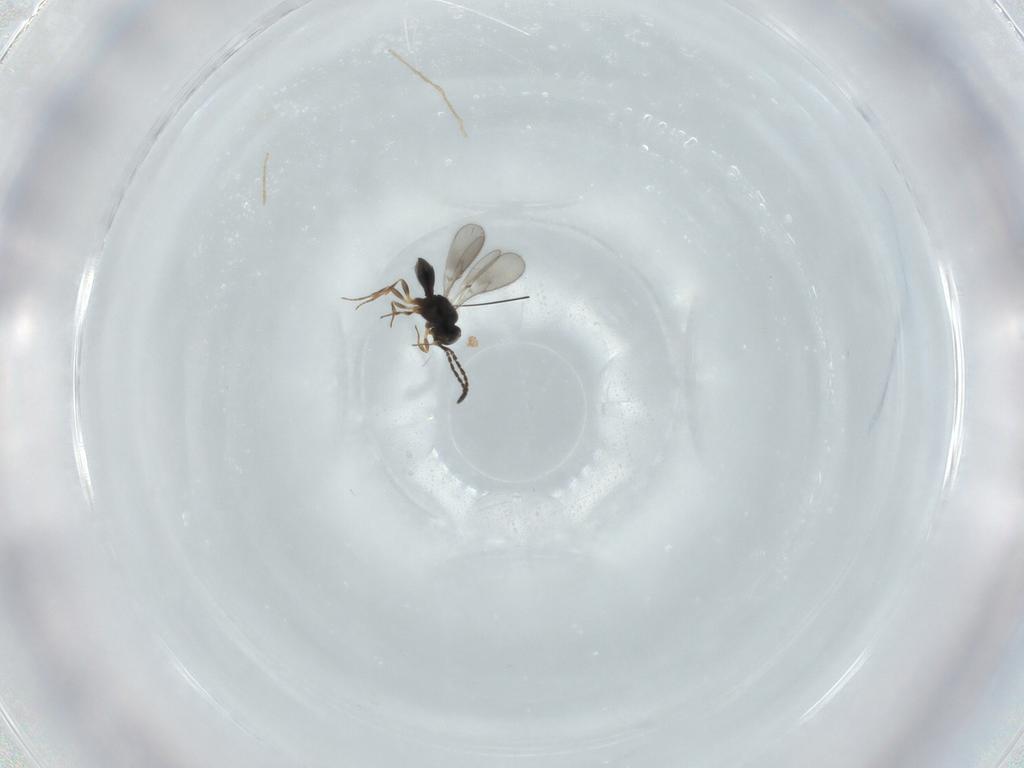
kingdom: Animalia
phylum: Arthropoda
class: Insecta
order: Hymenoptera
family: Scelionidae
